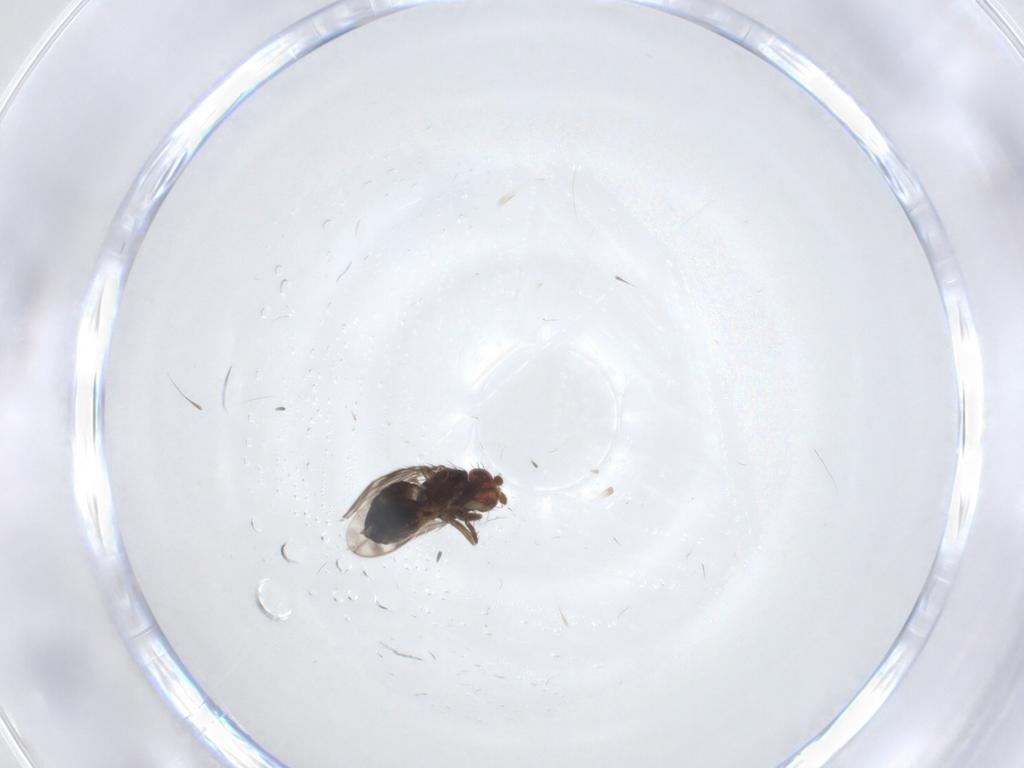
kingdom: Animalia
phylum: Arthropoda
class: Insecta
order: Diptera
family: Sphaeroceridae
